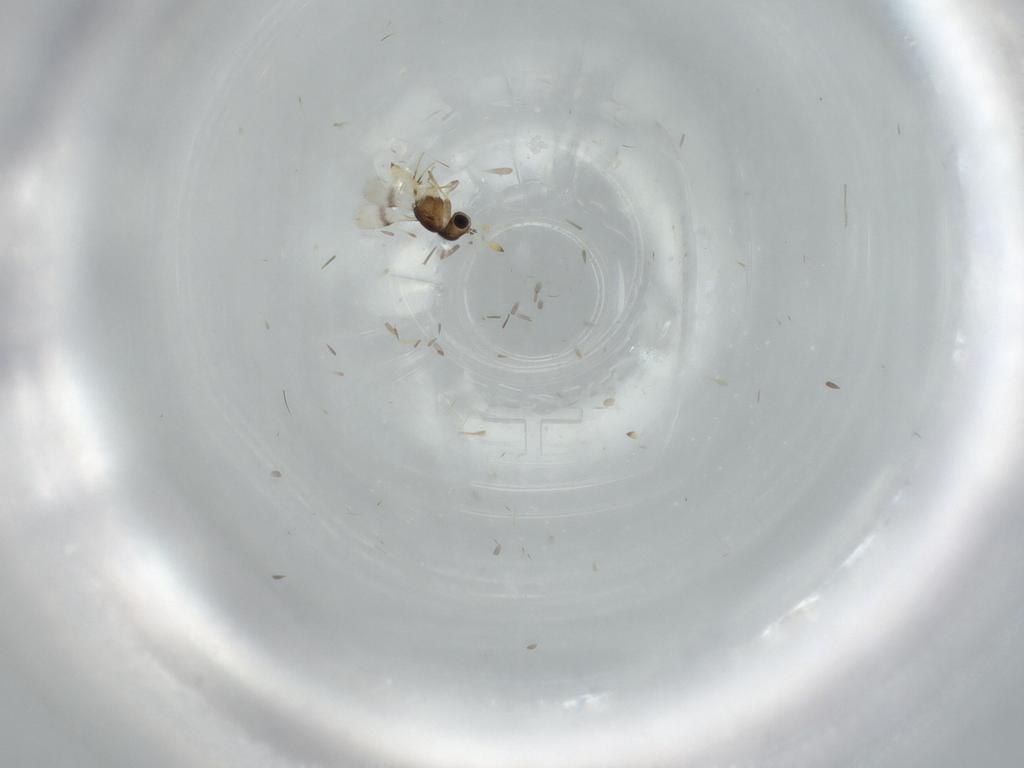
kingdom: Animalia
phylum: Arthropoda
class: Insecta
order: Hymenoptera
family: Scelionidae
